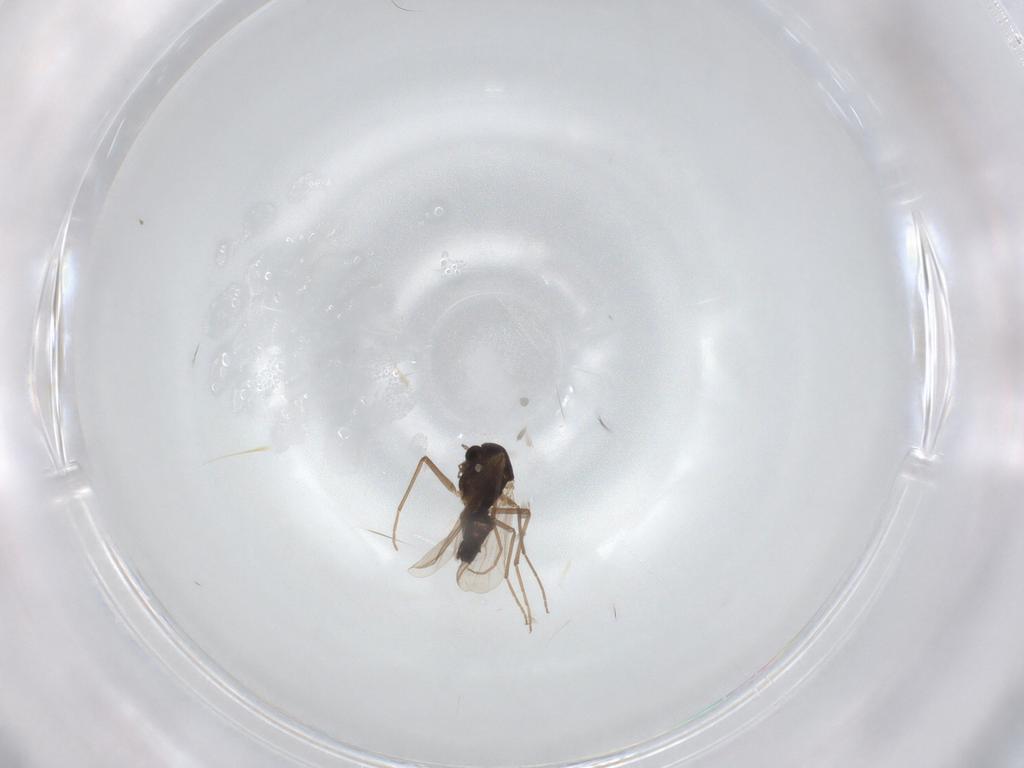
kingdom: Animalia
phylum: Arthropoda
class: Insecta
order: Diptera
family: Chironomidae
